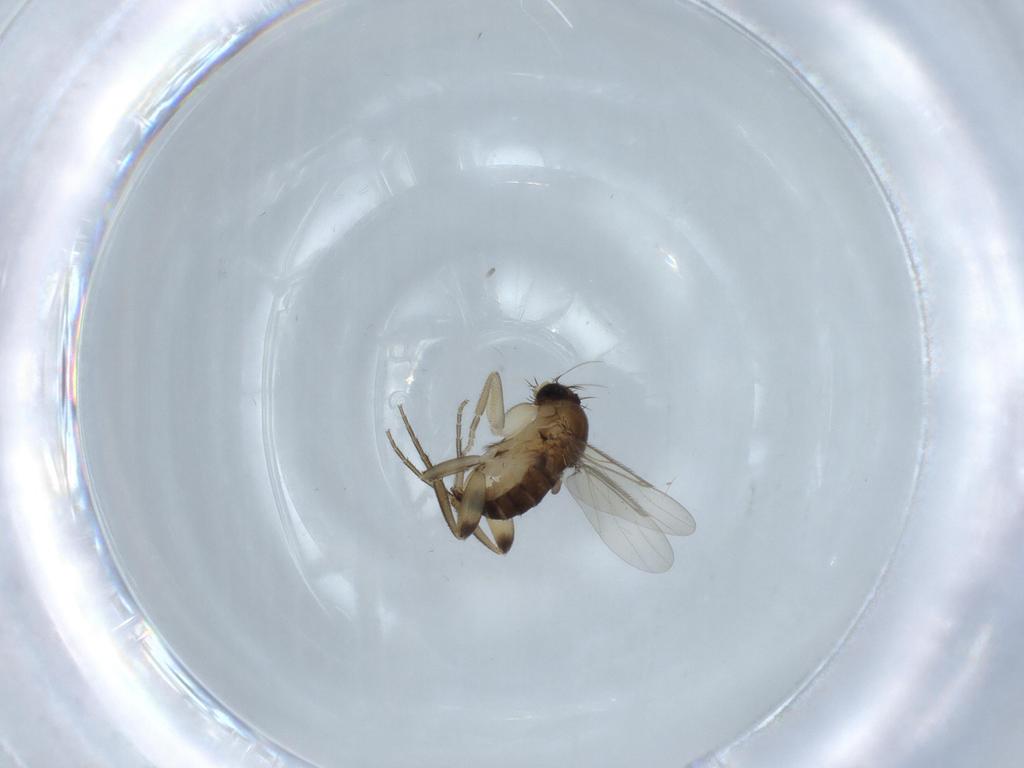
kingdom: Animalia
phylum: Arthropoda
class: Insecta
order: Diptera
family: Phoridae
